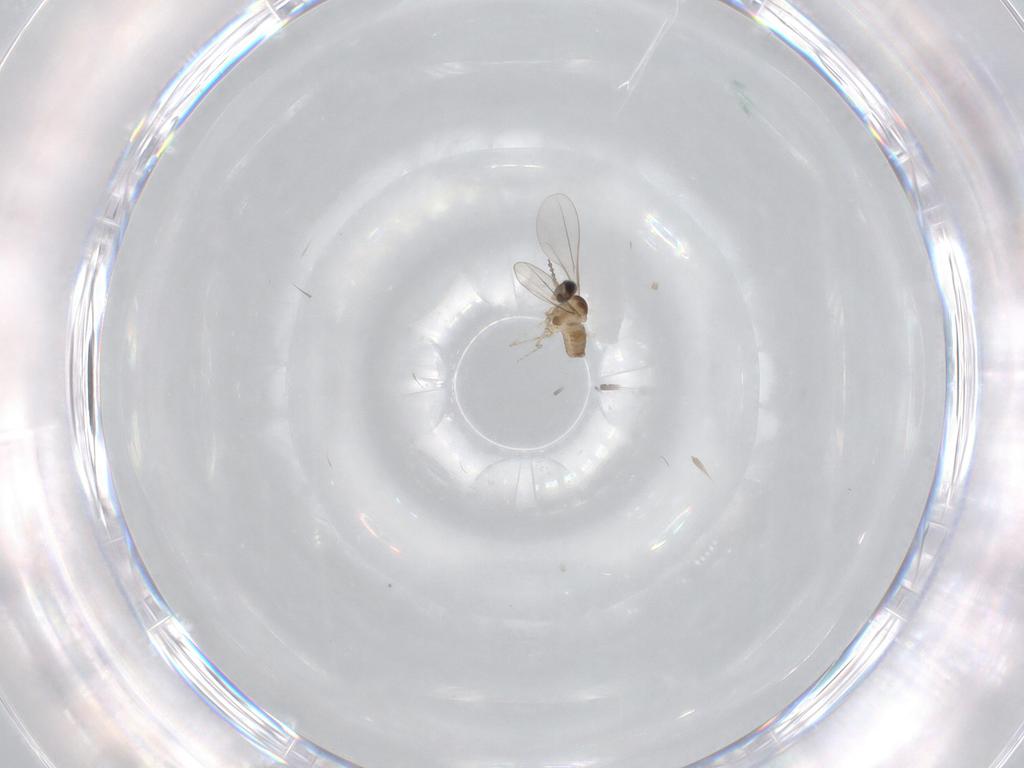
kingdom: Animalia
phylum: Arthropoda
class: Insecta
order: Diptera
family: Cecidomyiidae
